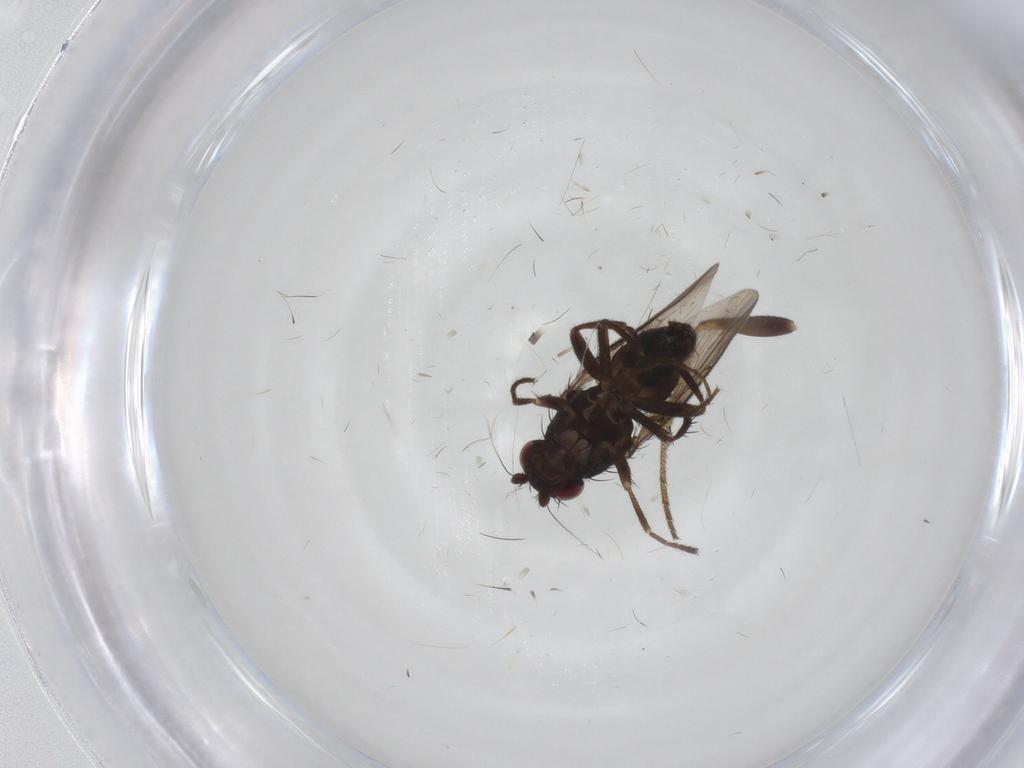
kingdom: Animalia
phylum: Arthropoda
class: Insecta
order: Diptera
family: Sphaeroceridae
